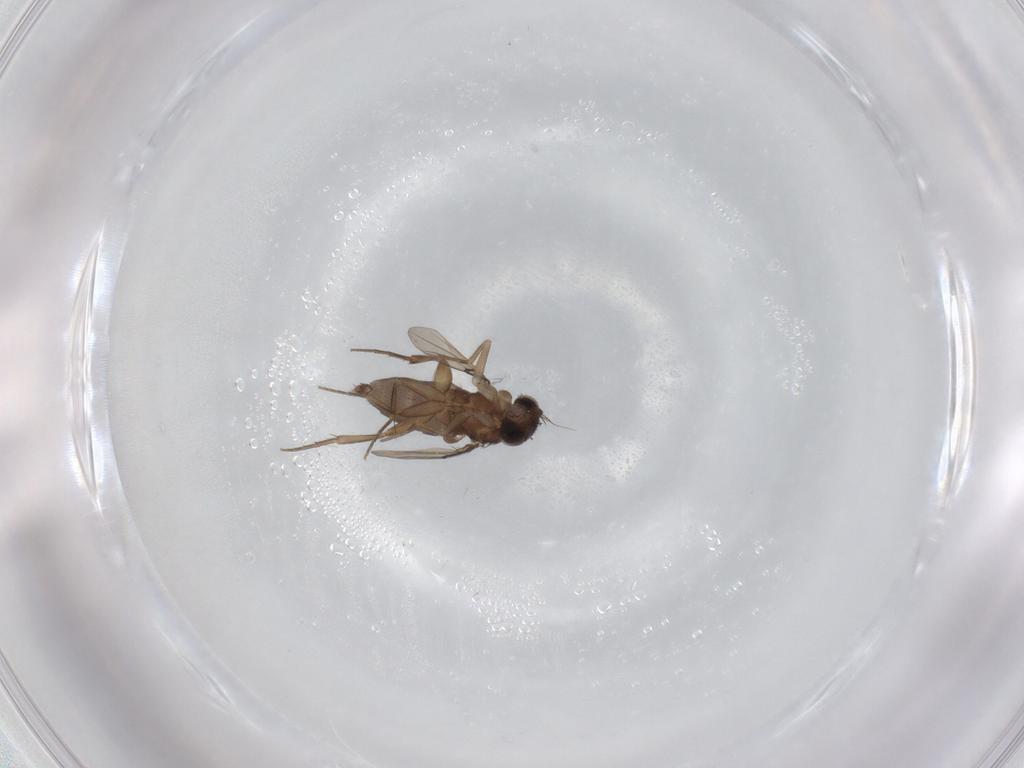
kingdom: Animalia
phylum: Arthropoda
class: Insecta
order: Diptera
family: Phoridae
